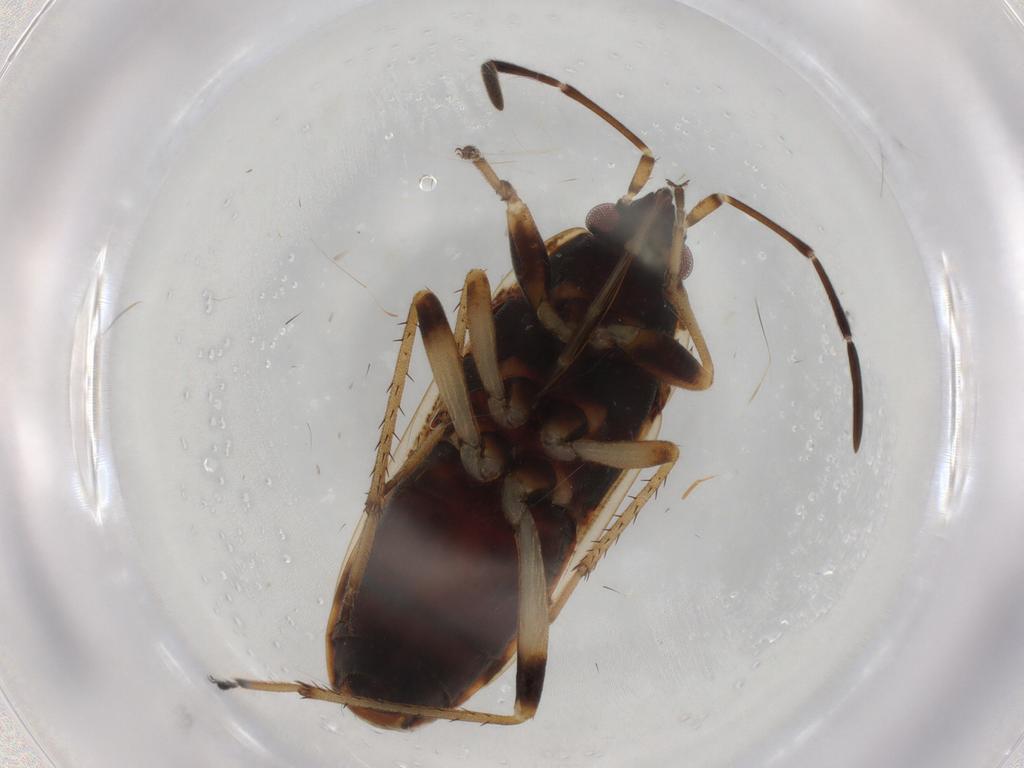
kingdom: Animalia
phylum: Arthropoda
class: Insecta
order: Hemiptera
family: Rhyparochromidae
